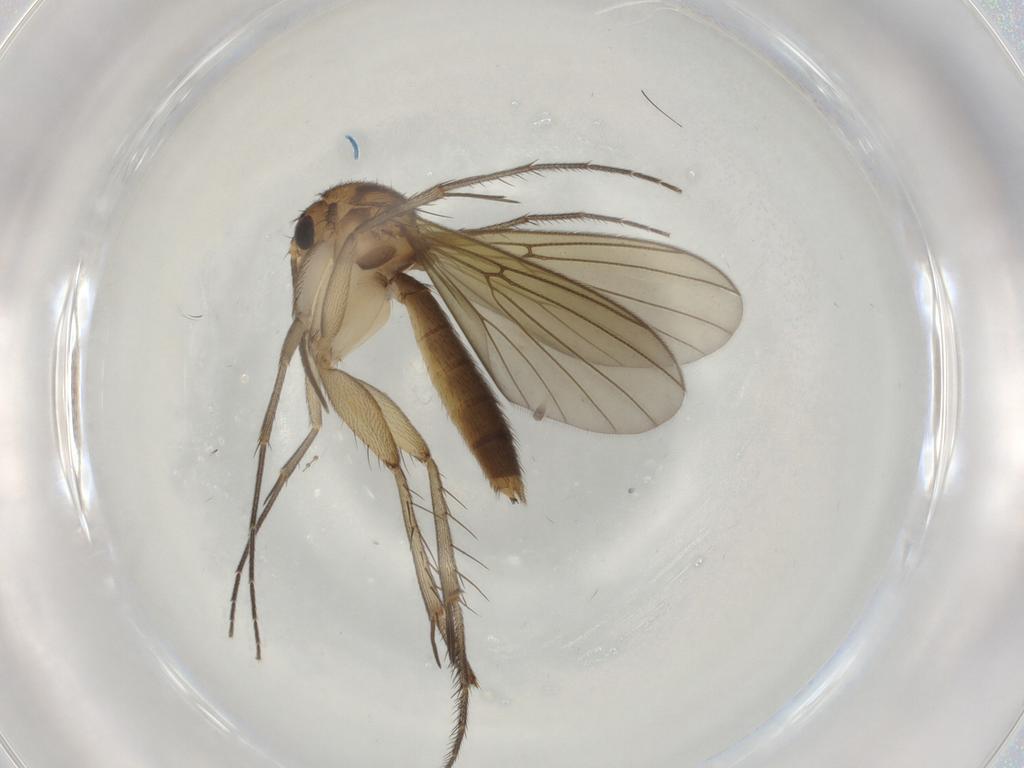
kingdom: Animalia
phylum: Arthropoda
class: Insecta
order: Diptera
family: Mycetophilidae
